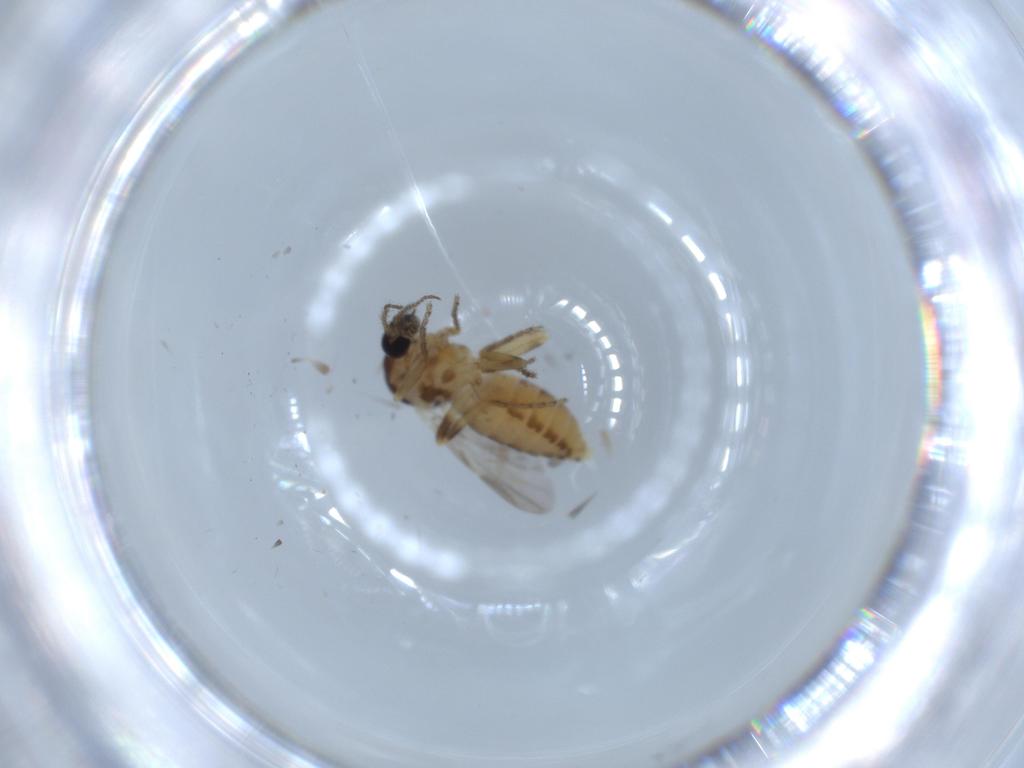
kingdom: Animalia
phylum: Arthropoda
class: Insecta
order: Diptera
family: Ceratopogonidae
